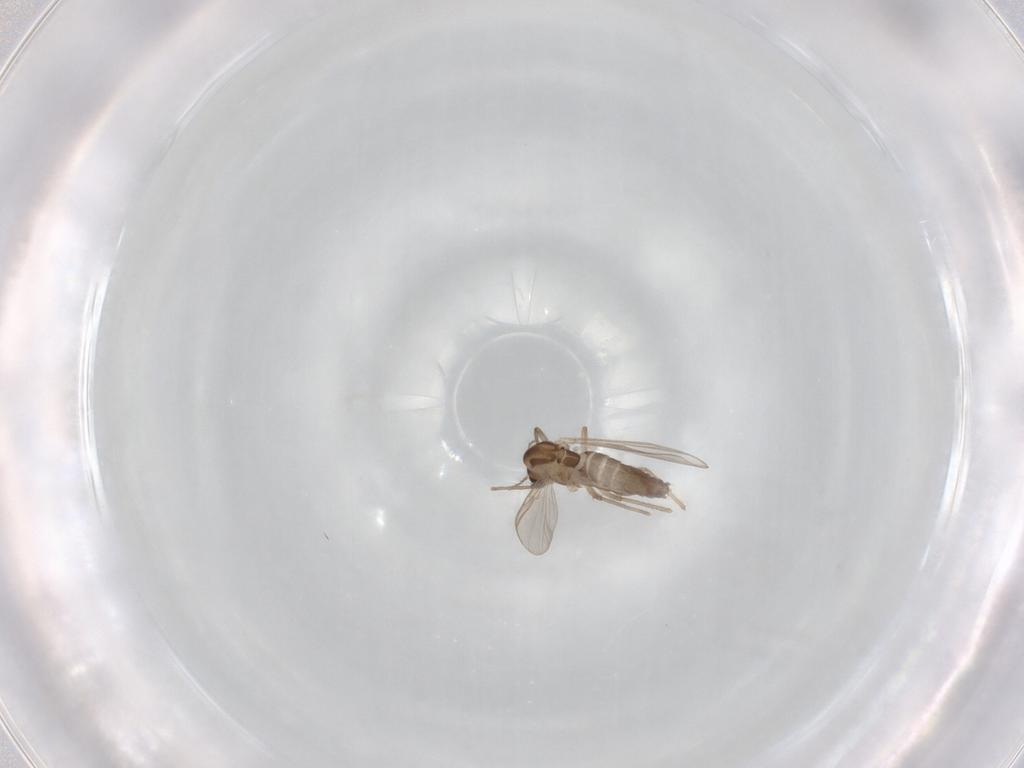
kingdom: Animalia
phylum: Arthropoda
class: Insecta
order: Diptera
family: Chironomidae
